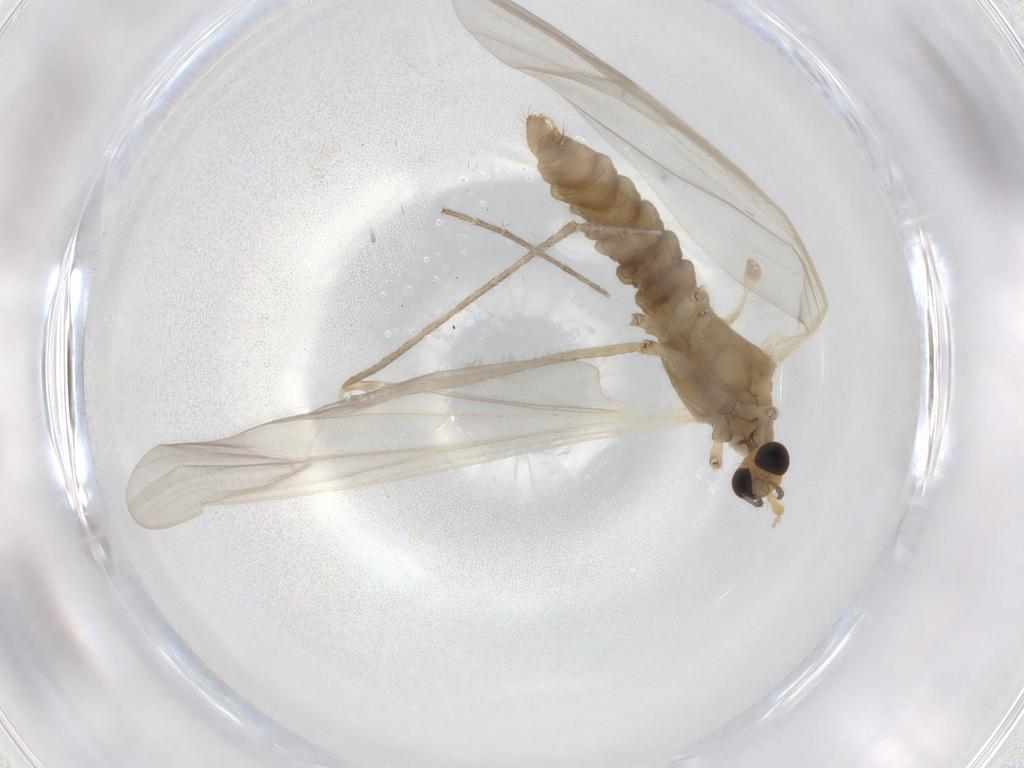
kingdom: Animalia
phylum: Arthropoda
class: Insecta
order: Diptera
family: Limoniidae
